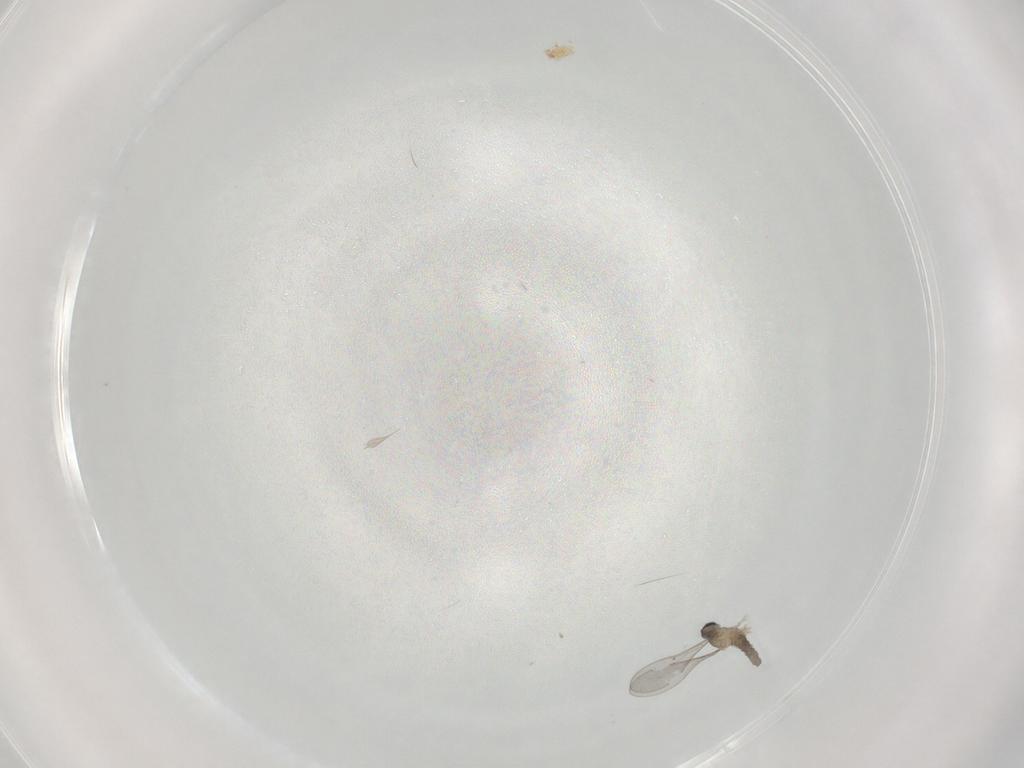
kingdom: Animalia
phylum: Arthropoda
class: Insecta
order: Diptera
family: Cecidomyiidae
